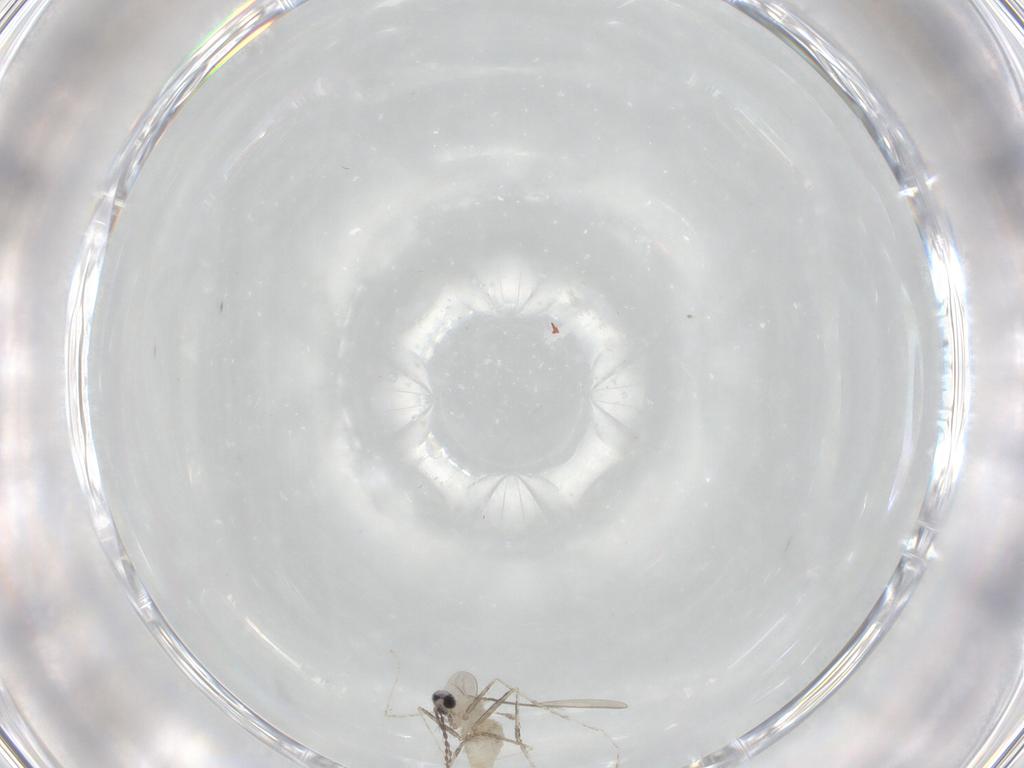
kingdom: Animalia
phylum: Arthropoda
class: Insecta
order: Diptera
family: Cecidomyiidae
